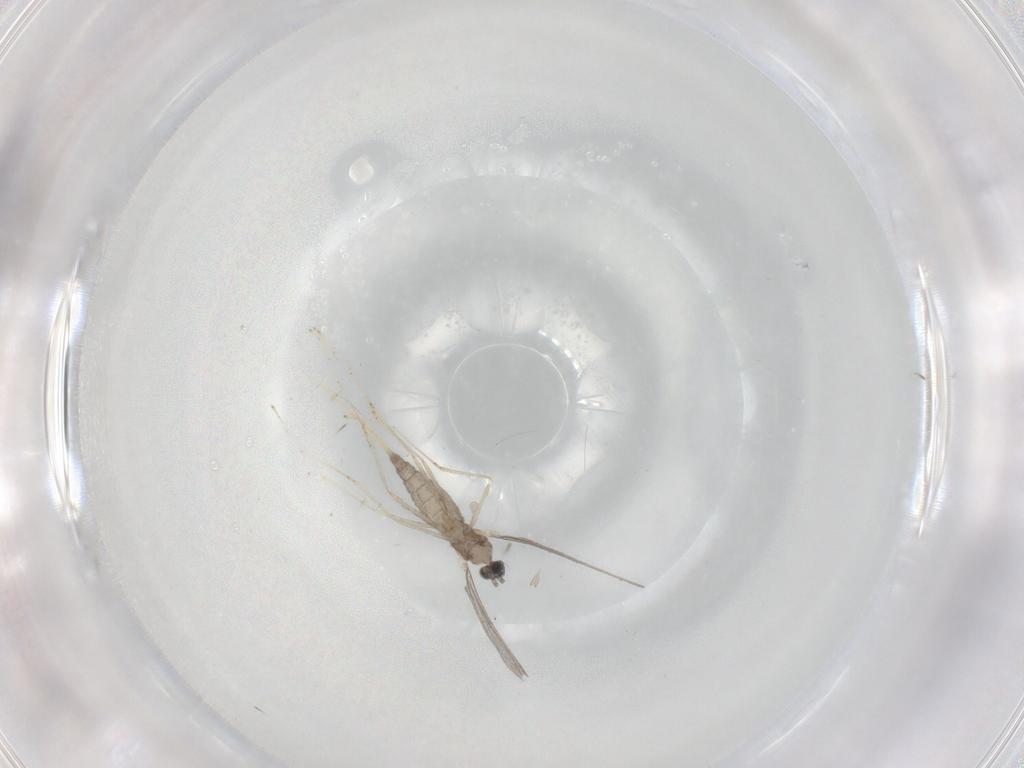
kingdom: Animalia
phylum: Arthropoda
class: Insecta
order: Diptera
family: Cecidomyiidae
